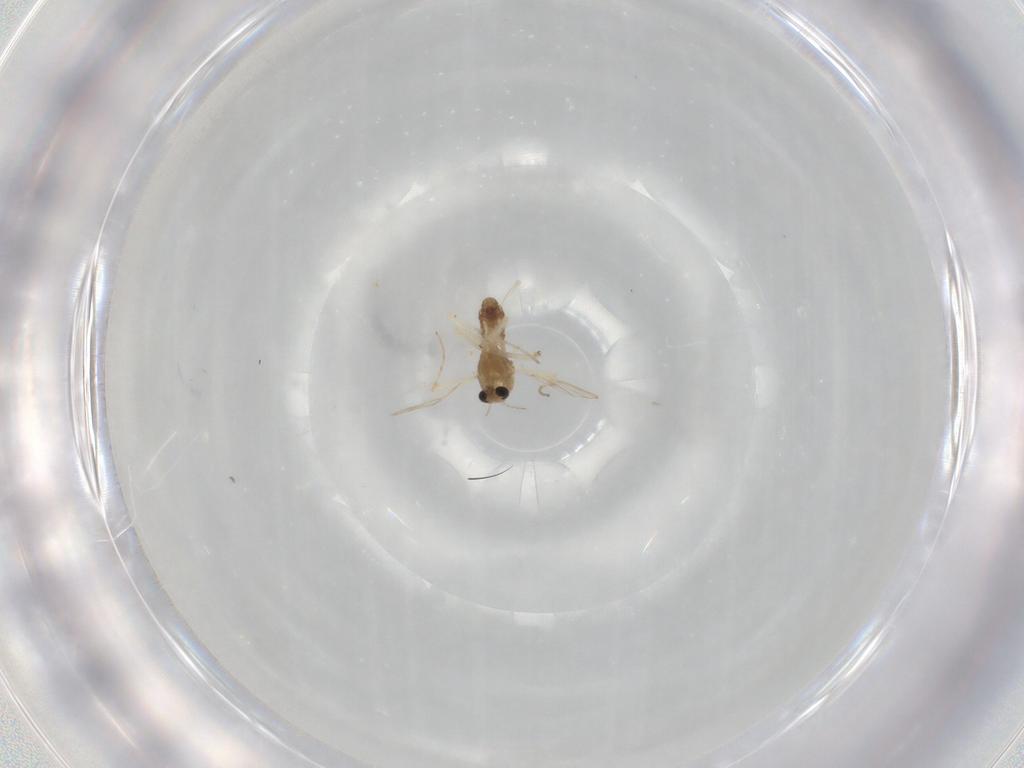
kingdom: Animalia
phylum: Arthropoda
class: Insecta
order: Diptera
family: Chironomidae
